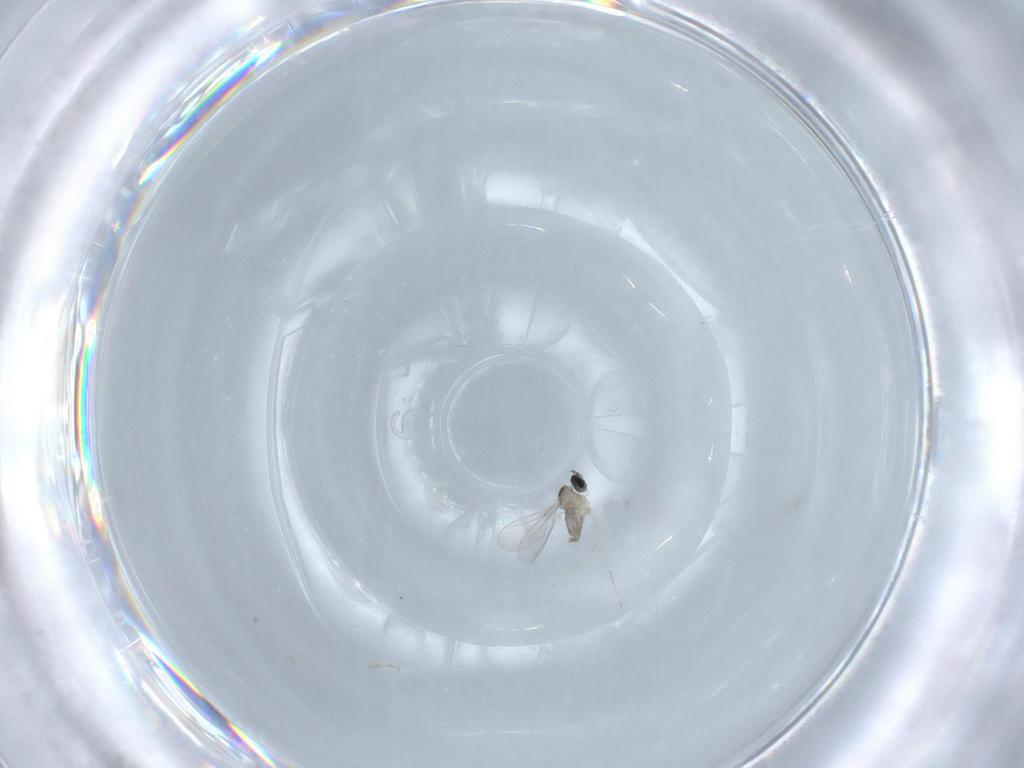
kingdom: Animalia
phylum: Arthropoda
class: Insecta
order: Diptera
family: Cecidomyiidae
